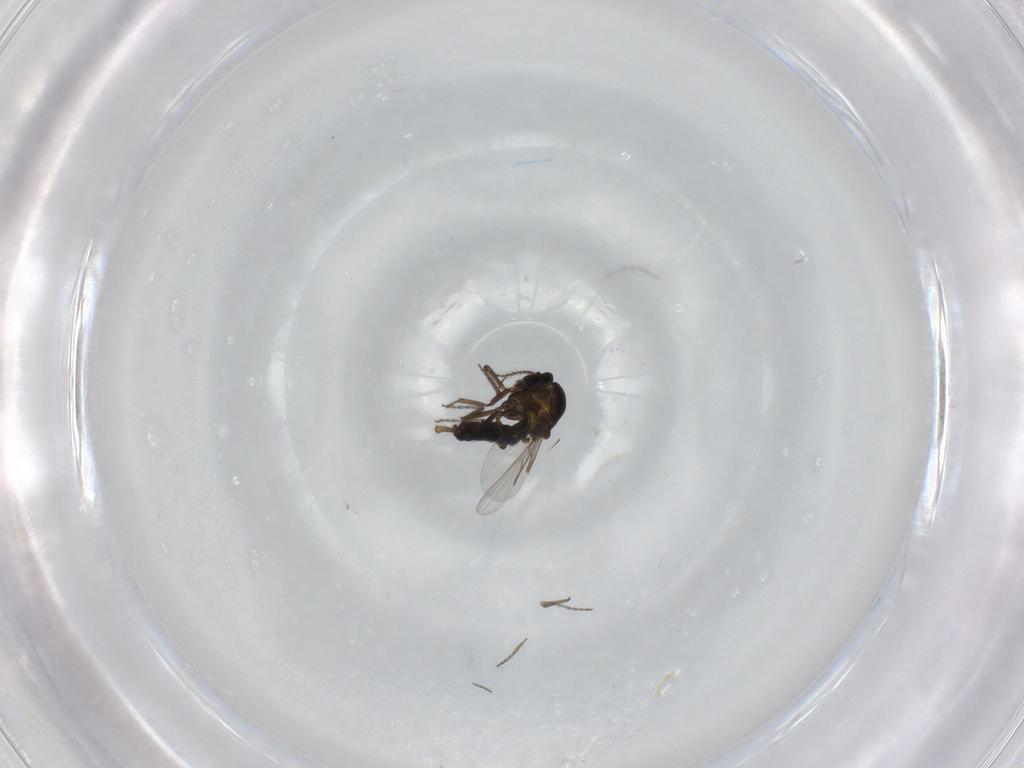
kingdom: Animalia
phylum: Arthropoda
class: Insecta
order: Diptera
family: Ceratopogonidae
